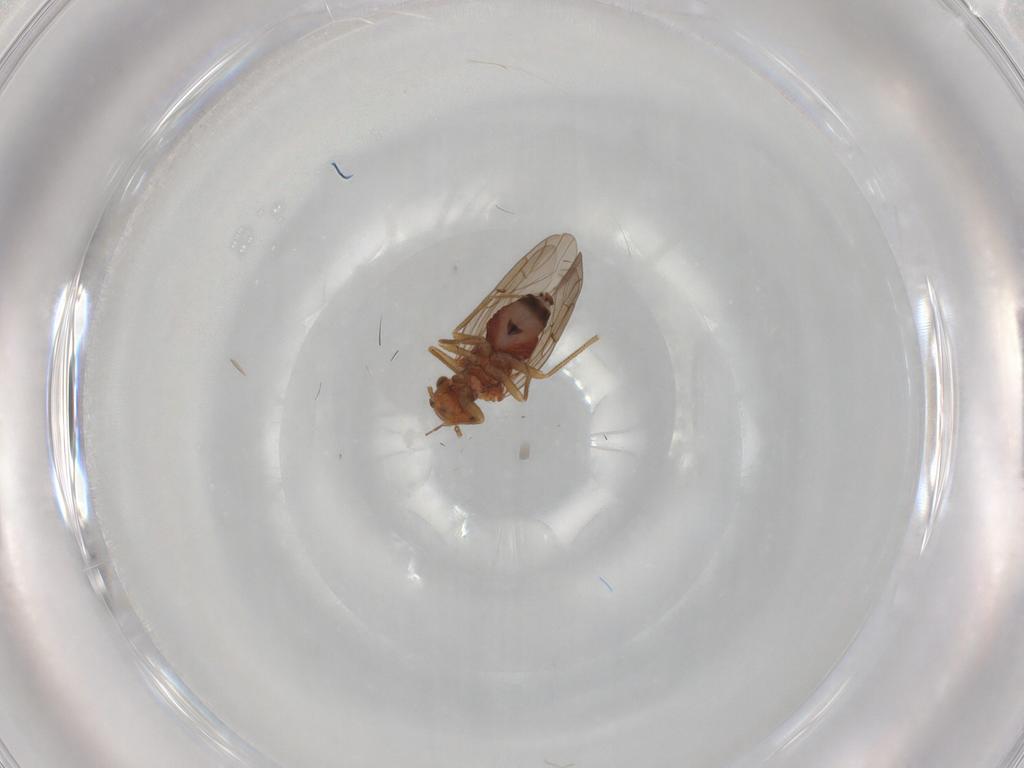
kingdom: Animalia
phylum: Arthropoda
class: Insecta
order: Psocodea
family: Ectopsocidae
